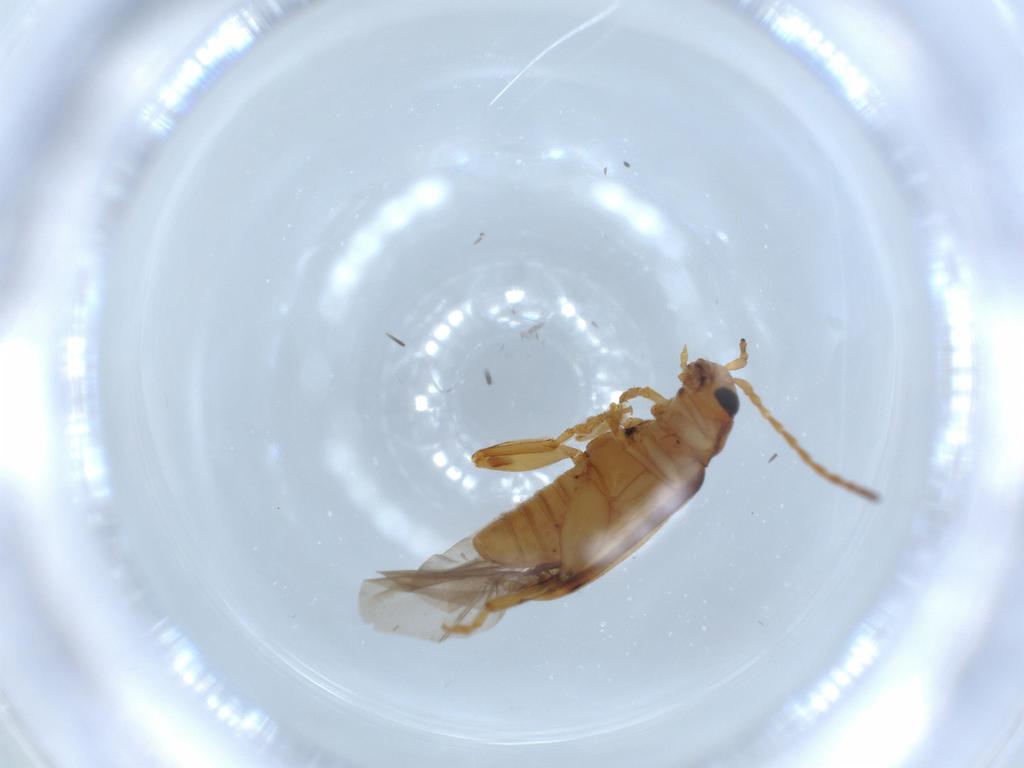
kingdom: Animalia
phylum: Arthropoda
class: Insecta
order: Coleoptera
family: Chrysomelidae
